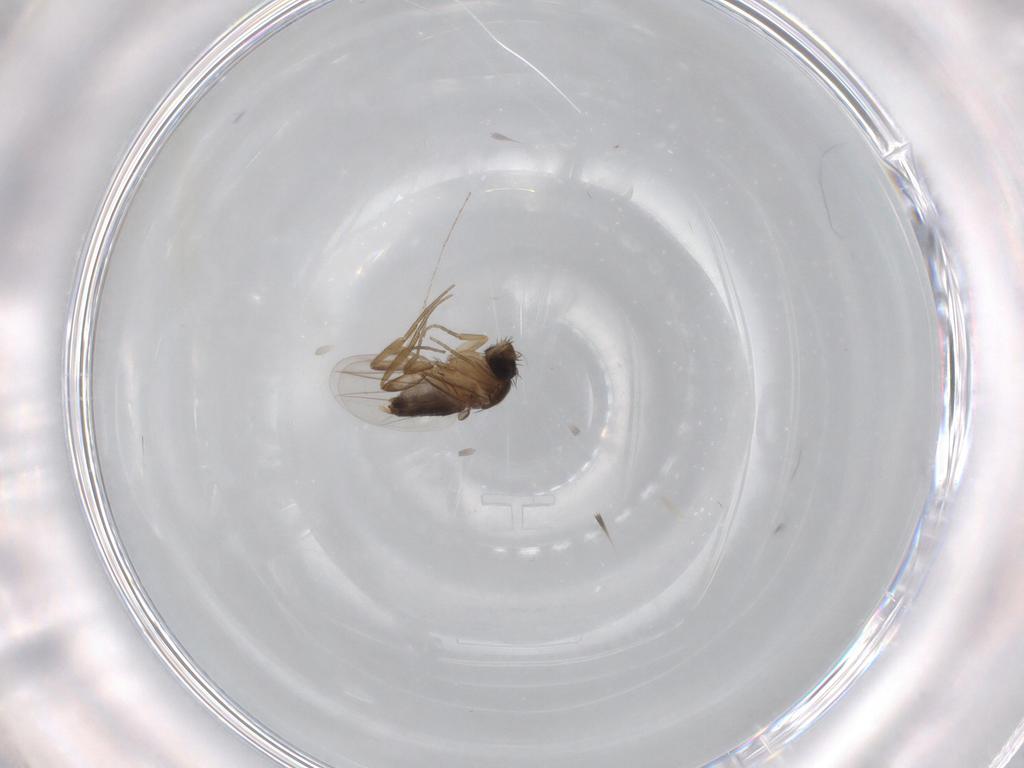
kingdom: Animalia
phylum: Arthropoda
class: Insecta
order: Diptera
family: Phoridae
